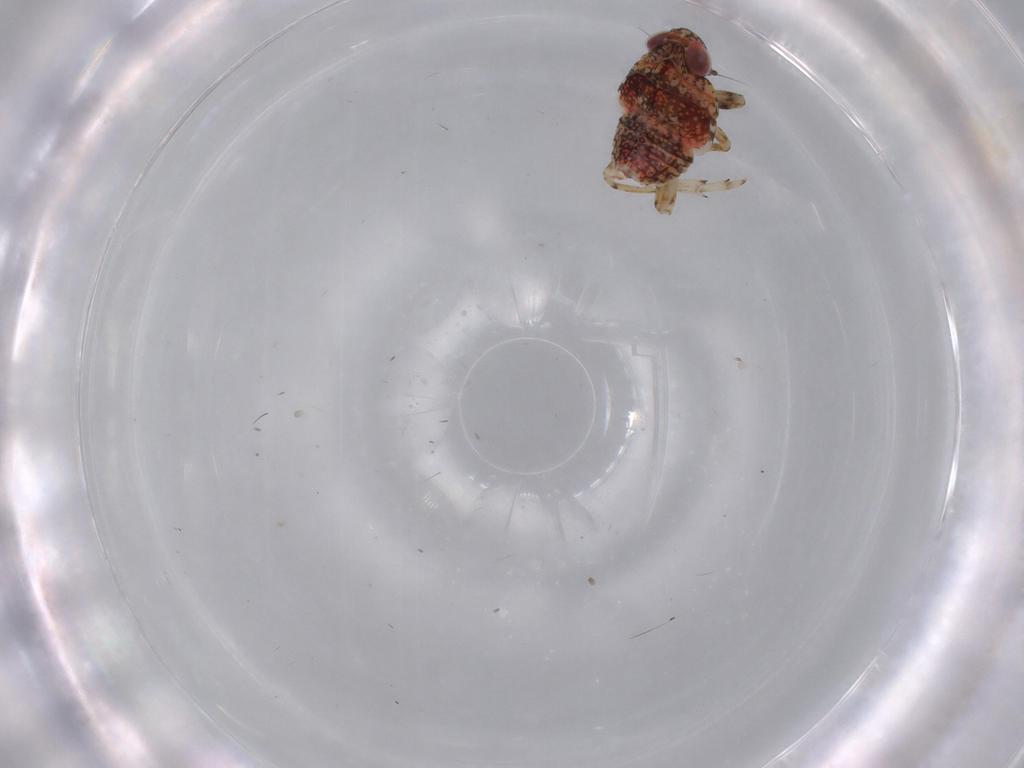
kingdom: Animalia
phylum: Arthropoda
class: Insecta
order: Hemiptera
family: Issidae
